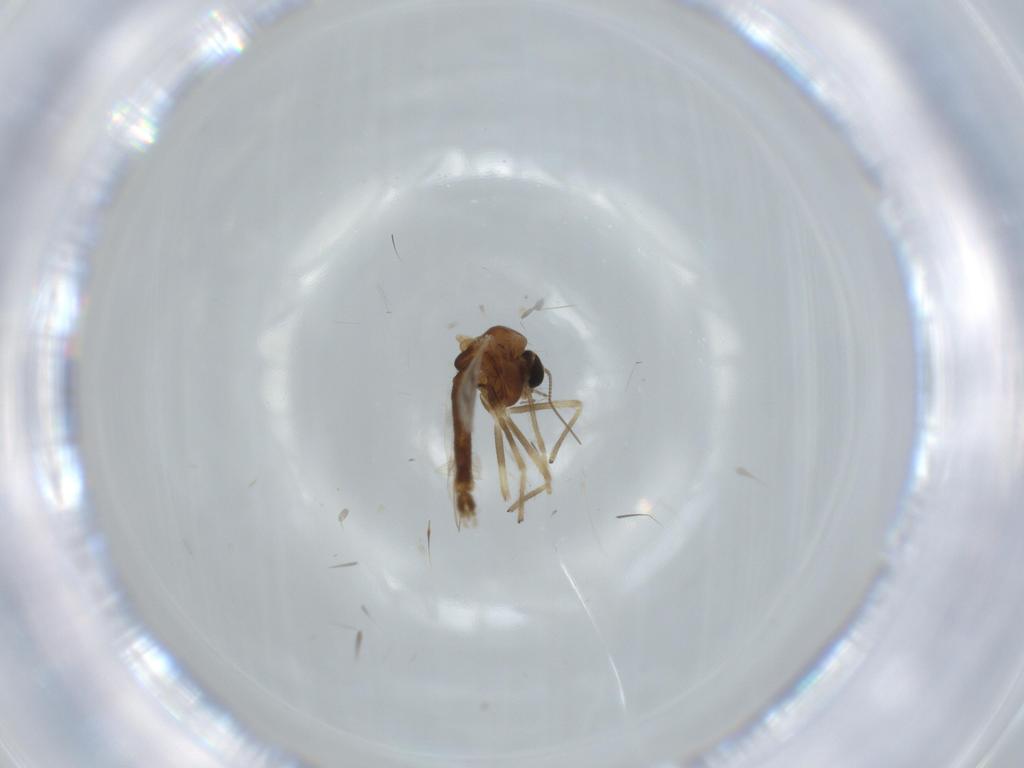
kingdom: Animalia
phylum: Arthropoda
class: Insecta
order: Diptera
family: Chironomidae
